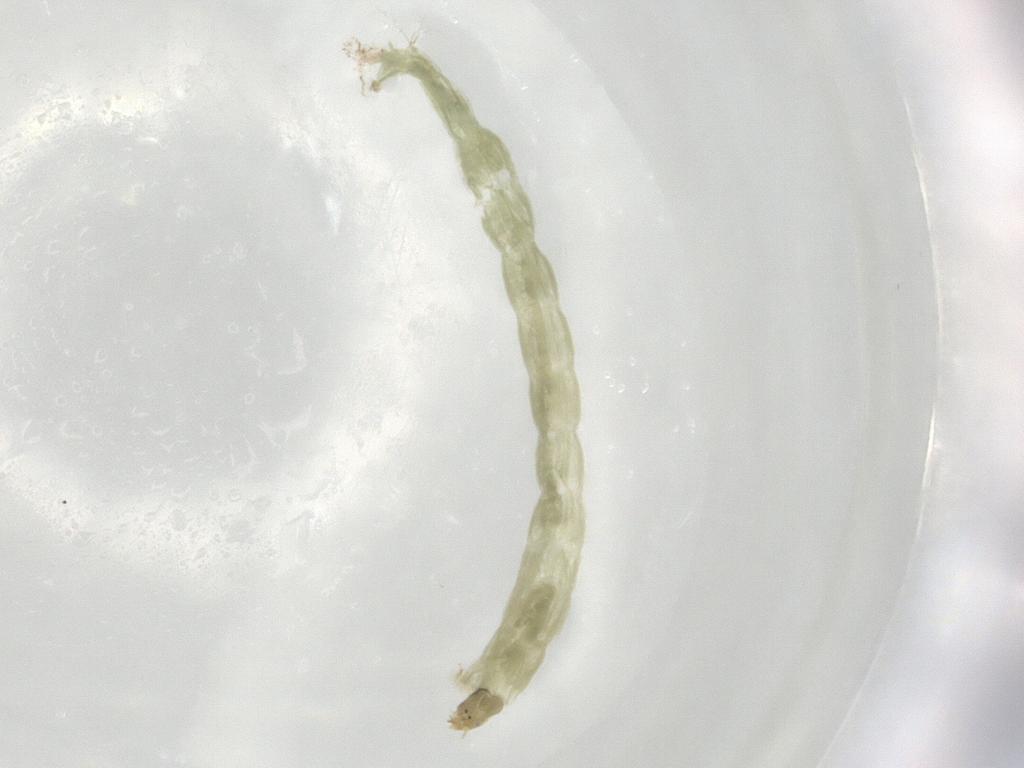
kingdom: Animalia
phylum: Arthropoda
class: Insecta
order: Diptera
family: Chironomidae
